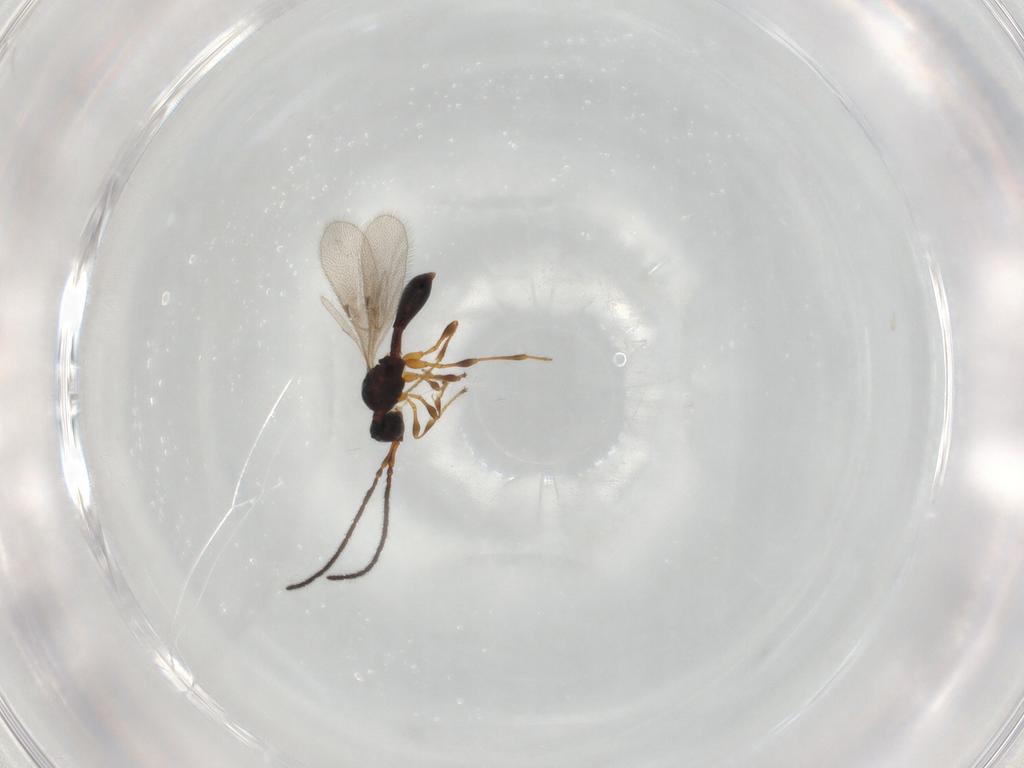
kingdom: Animalia
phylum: Arthropoda
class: Insecta
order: Hymenoptera
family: Diapriidae
